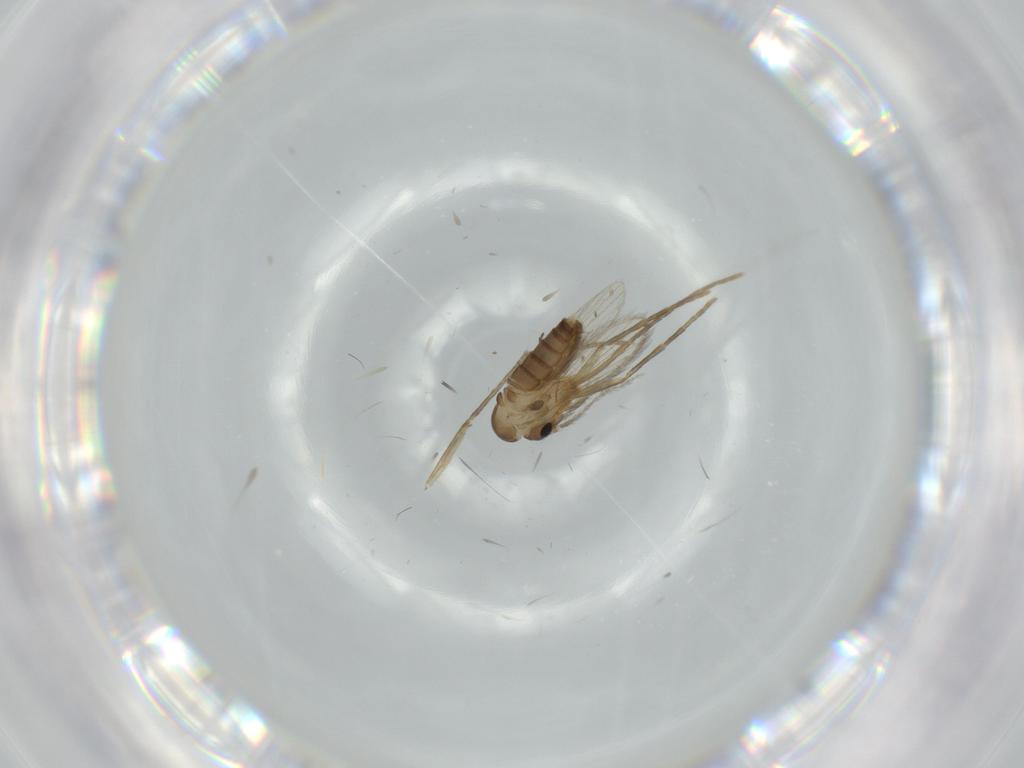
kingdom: Animalia
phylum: Arthropoda
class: Insecta
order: Diptera
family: Psychodidae
